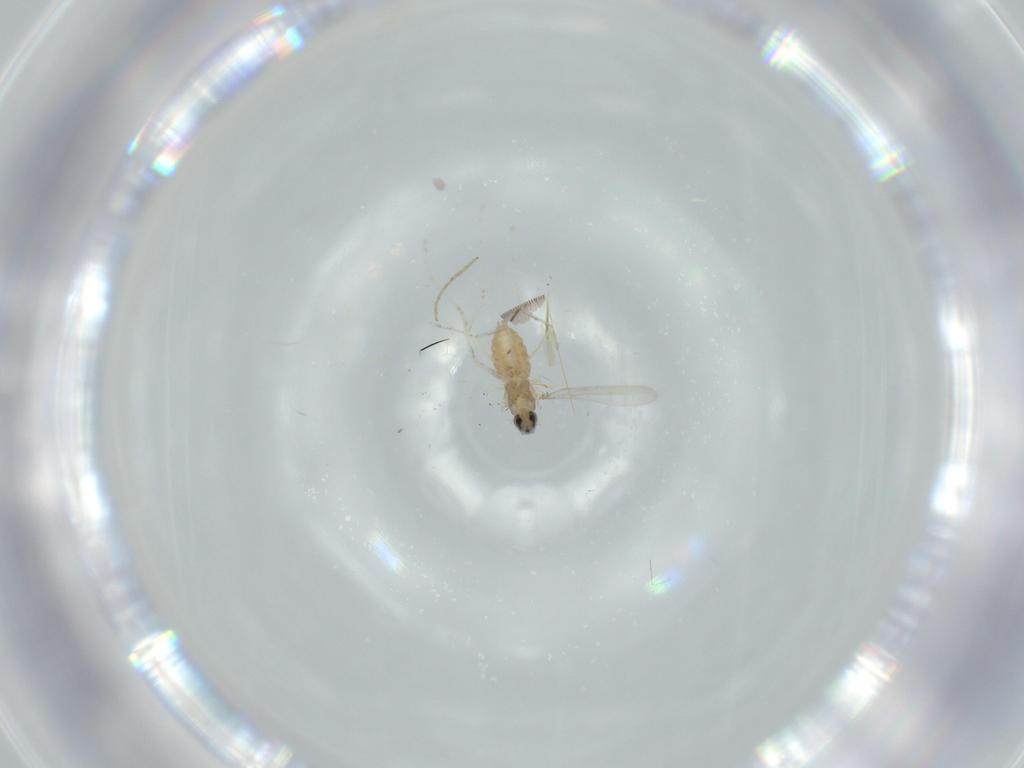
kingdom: Animalia
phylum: Arthropoda
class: Insecta
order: Diptera
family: Cecidomyiidae
